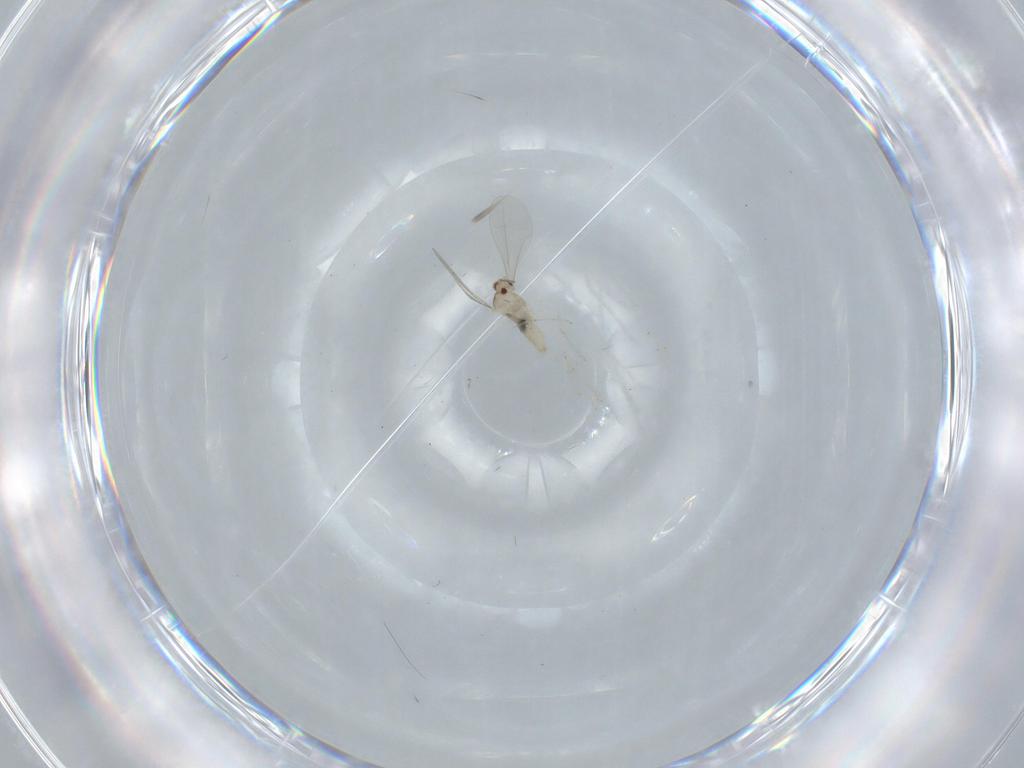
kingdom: Animalia
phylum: Arthropoda
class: Insecta
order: Diptera
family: Cecidomyiidae
